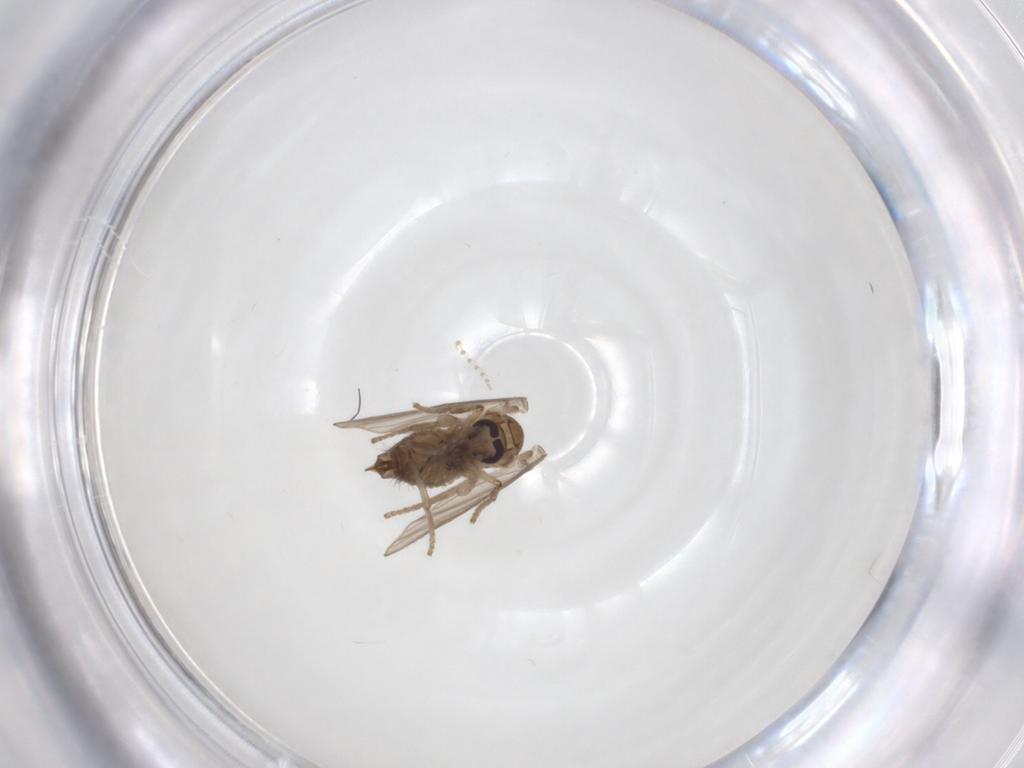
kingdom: Animalia
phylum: Arthropoda
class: Insecta
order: Diptera
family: Psychodidae
